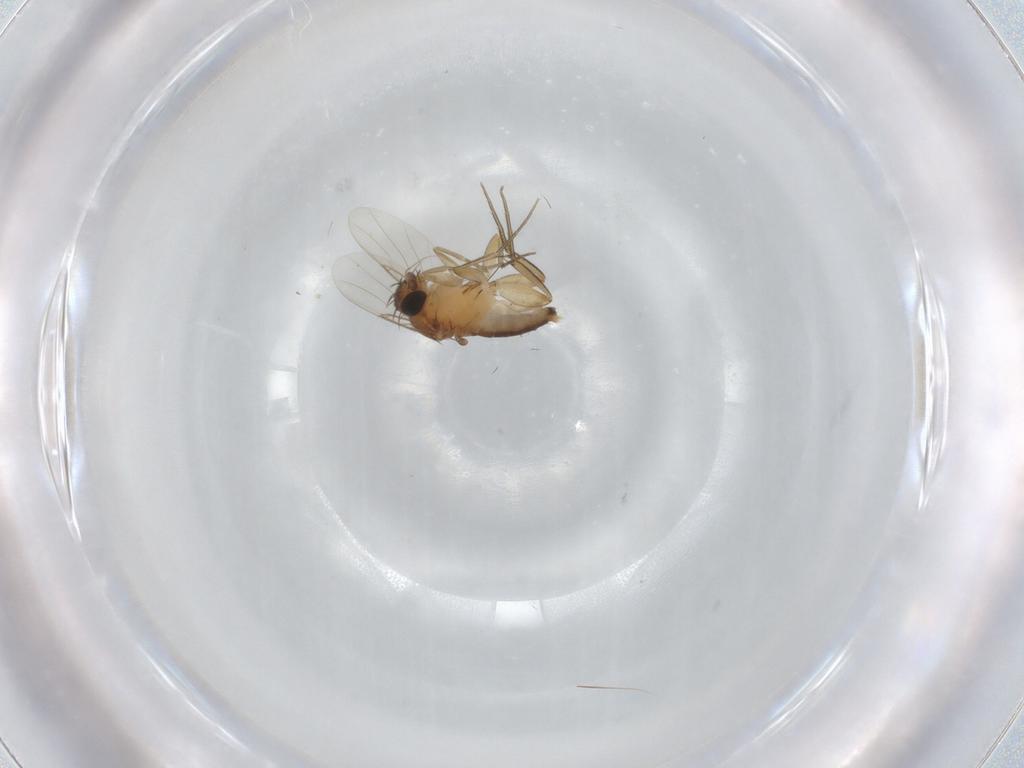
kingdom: Animalia
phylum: Arthropoda
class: Insecta
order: Diptera
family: Phoridae
